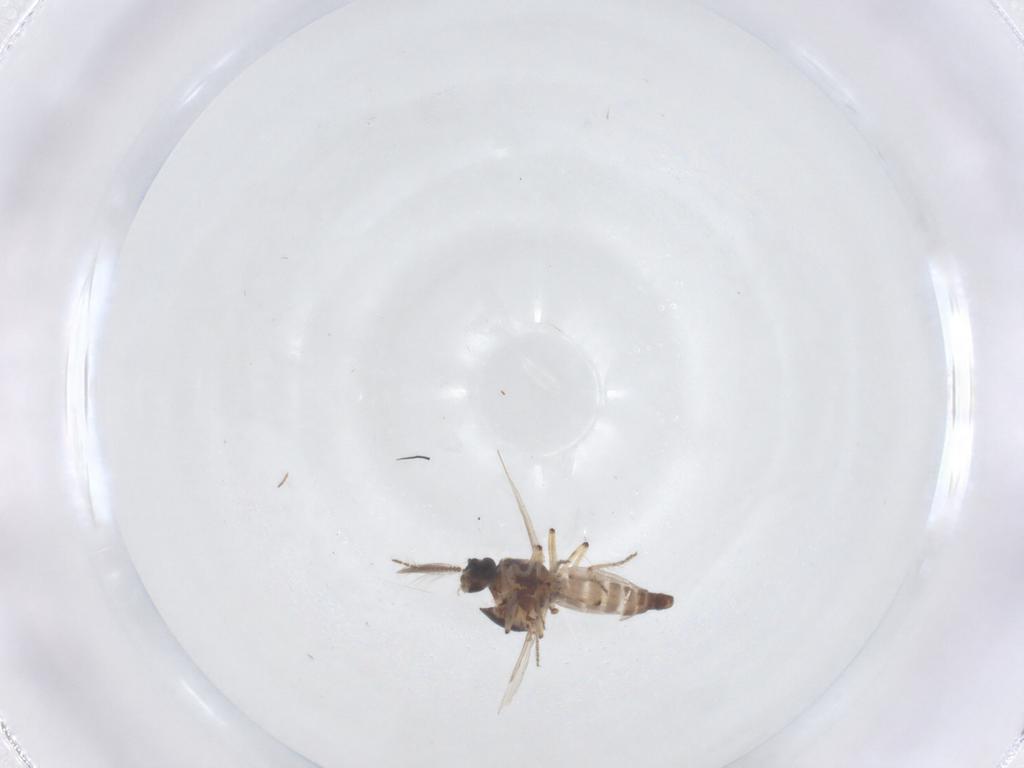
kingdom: Animalia
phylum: Arthropoda
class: Insecta
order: Diptera
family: Ceratopogonidae
